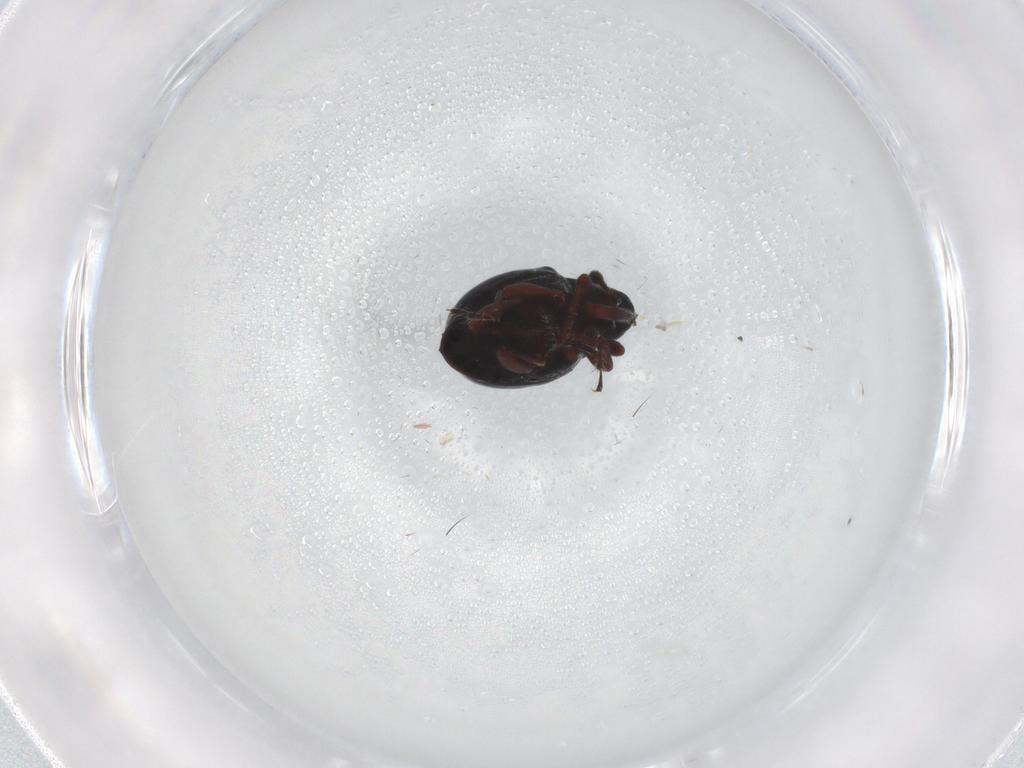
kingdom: Animalia
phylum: Arthropoda
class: Insecta
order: Coleoptera
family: Curculionidae
